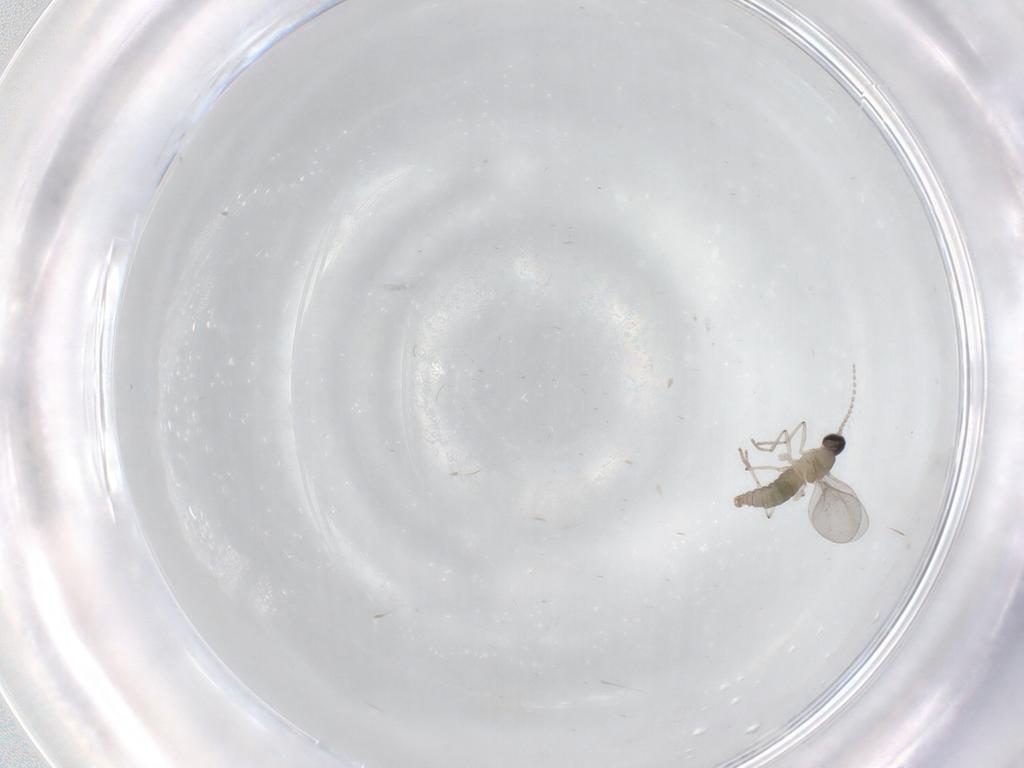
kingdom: Animalia
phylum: Arthropoda
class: Insecta
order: Diptera
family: Cecidomyiidae
